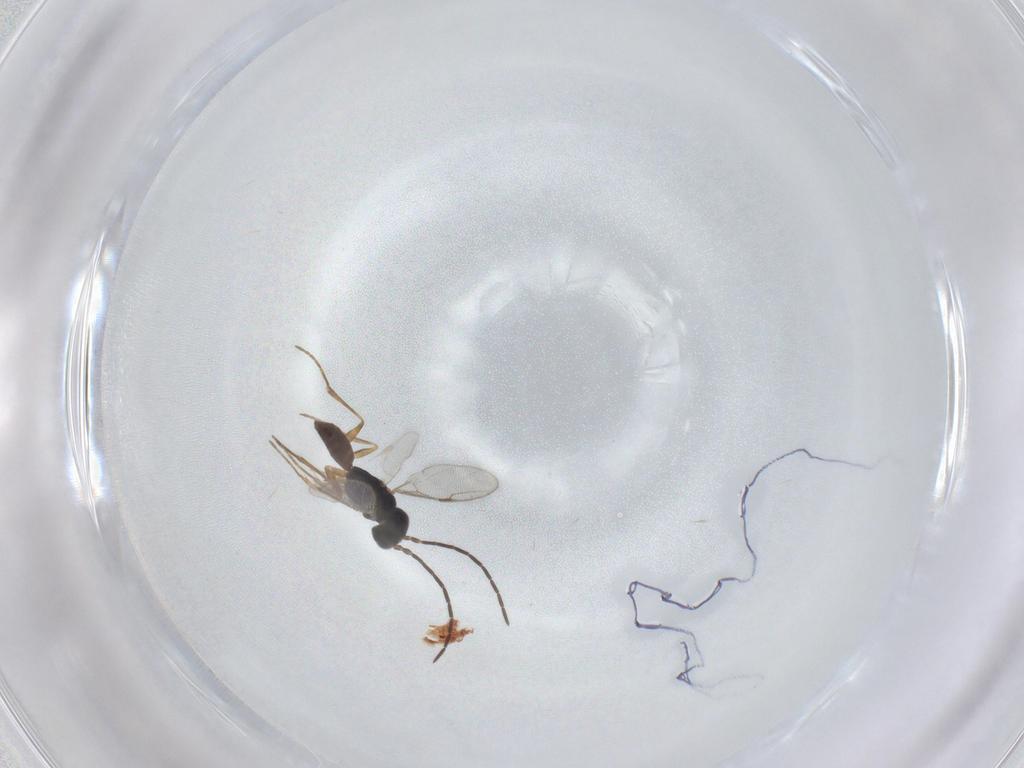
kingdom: Animalia
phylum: Arthropoda
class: Insecta
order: Hymenoptera
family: Dryinidae
